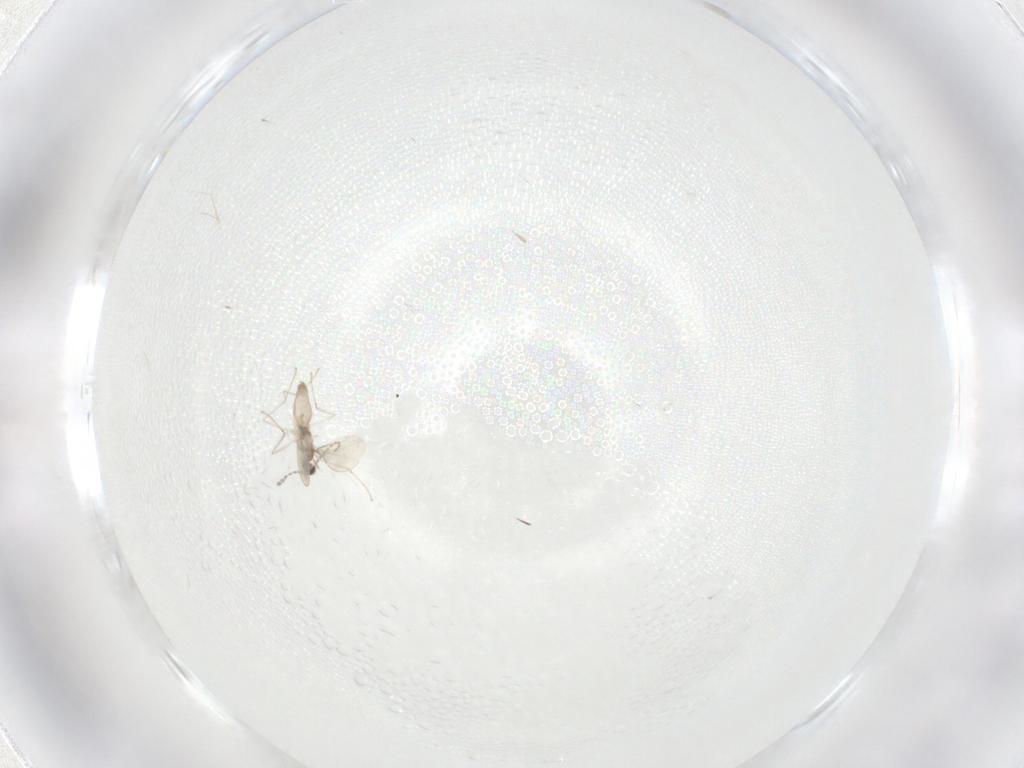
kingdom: Animalia
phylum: Arthropoda
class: Insecta
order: Diptera
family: Cecidomyiidae
